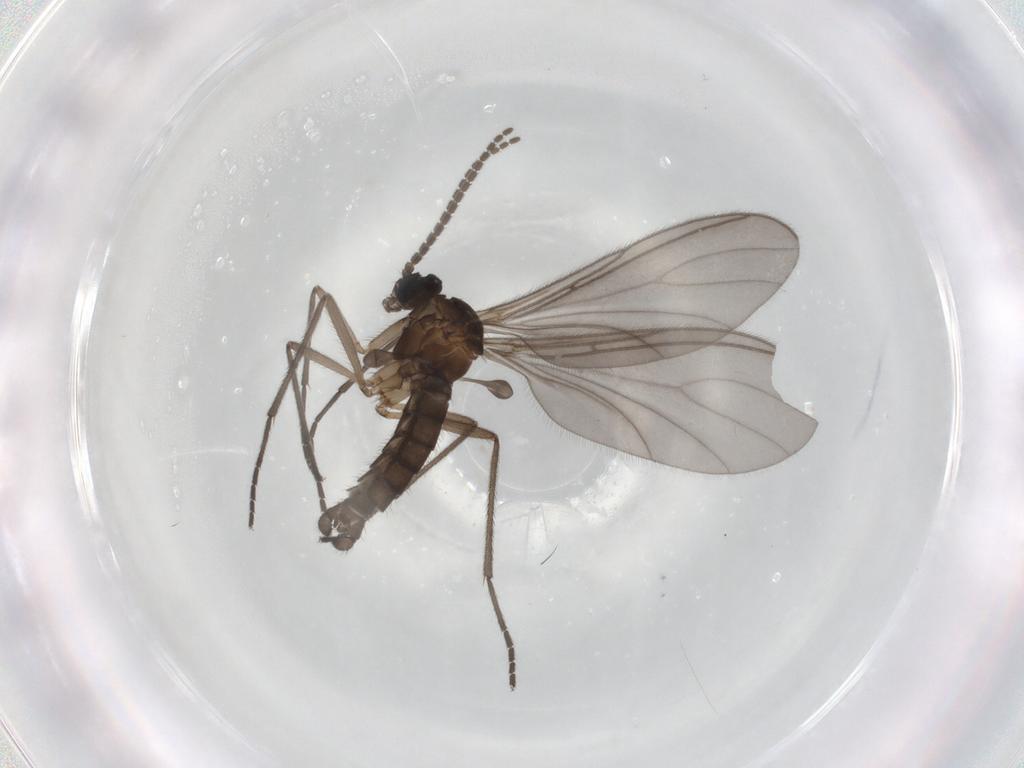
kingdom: Animalia
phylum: Arthropoda
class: Insecta
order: Diptera
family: Sciaridae
